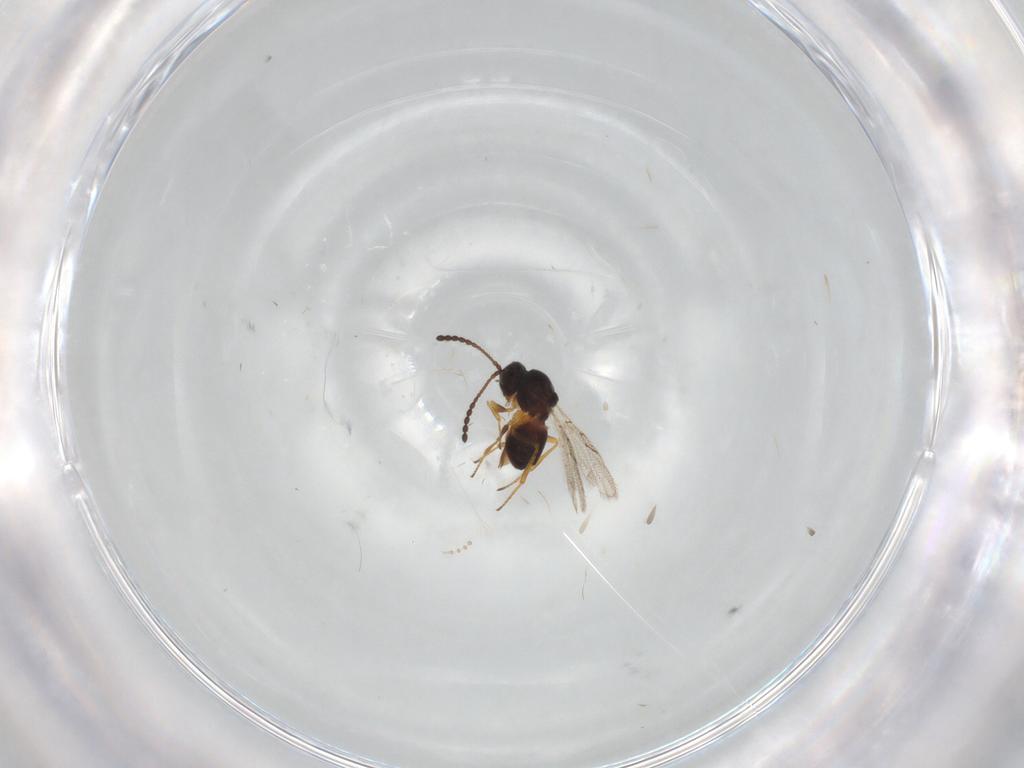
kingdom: Animalia
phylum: Arthropoda
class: Insecta
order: Hymenoptera
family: Figitidae
